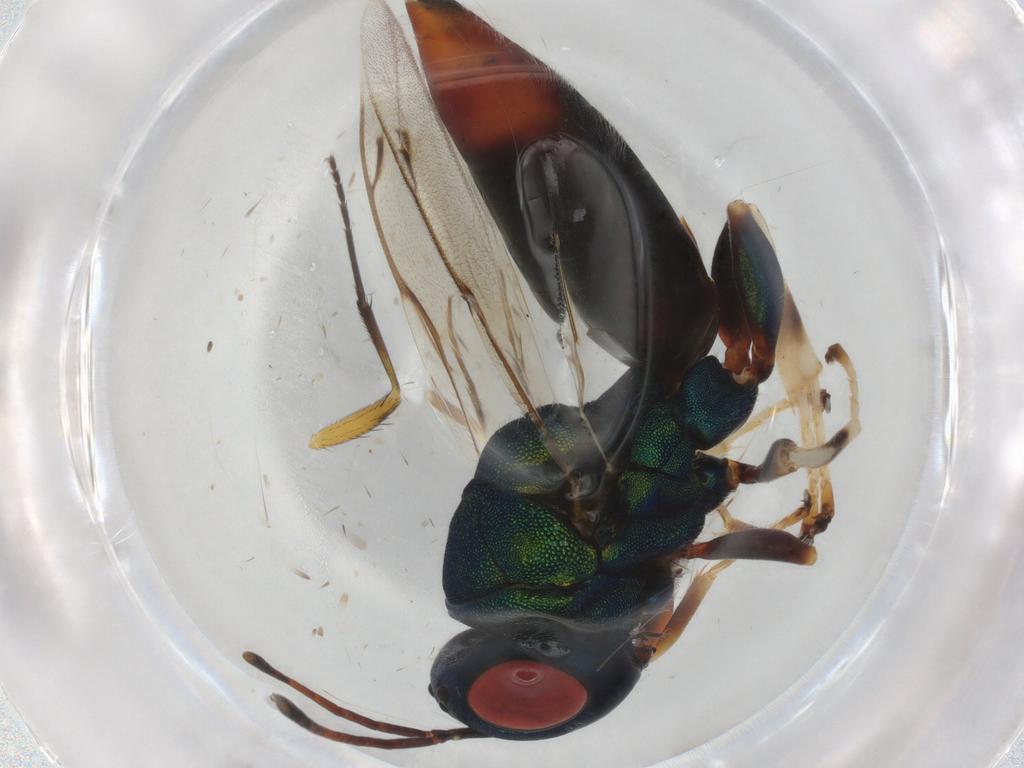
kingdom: Animalia
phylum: Arthropoda
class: Insecta
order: Hymenoptera
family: Pteromalidae
